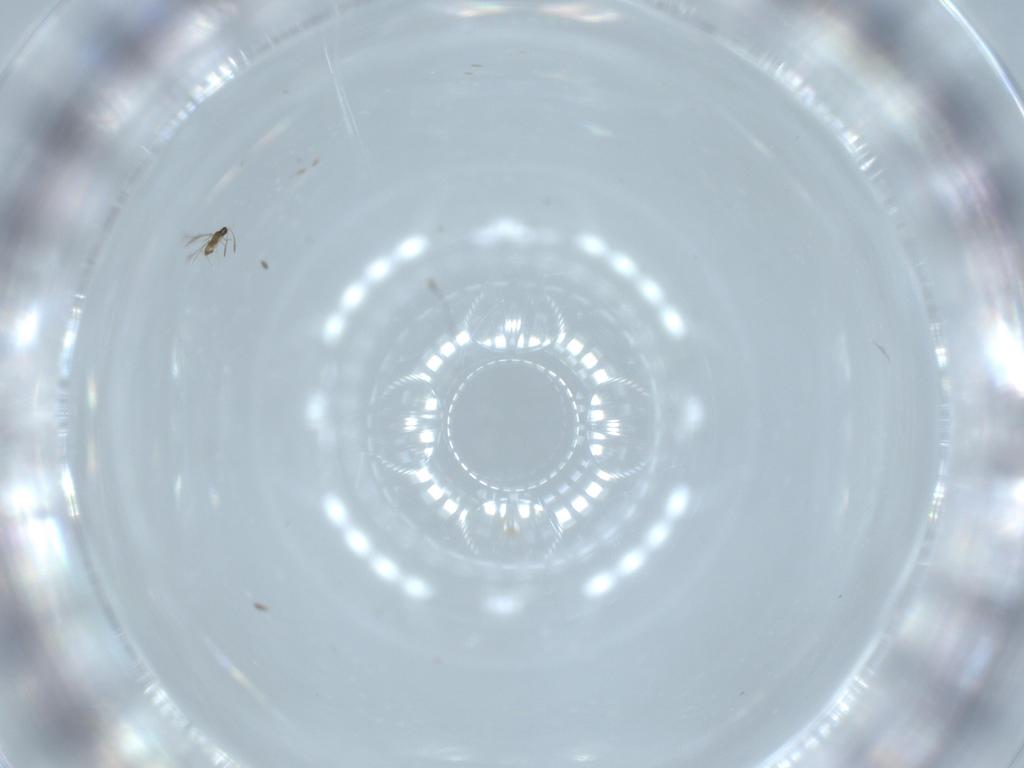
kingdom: Animalia
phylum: Arthropoda
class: Insecta
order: Hymenoptera
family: Mymaridae
